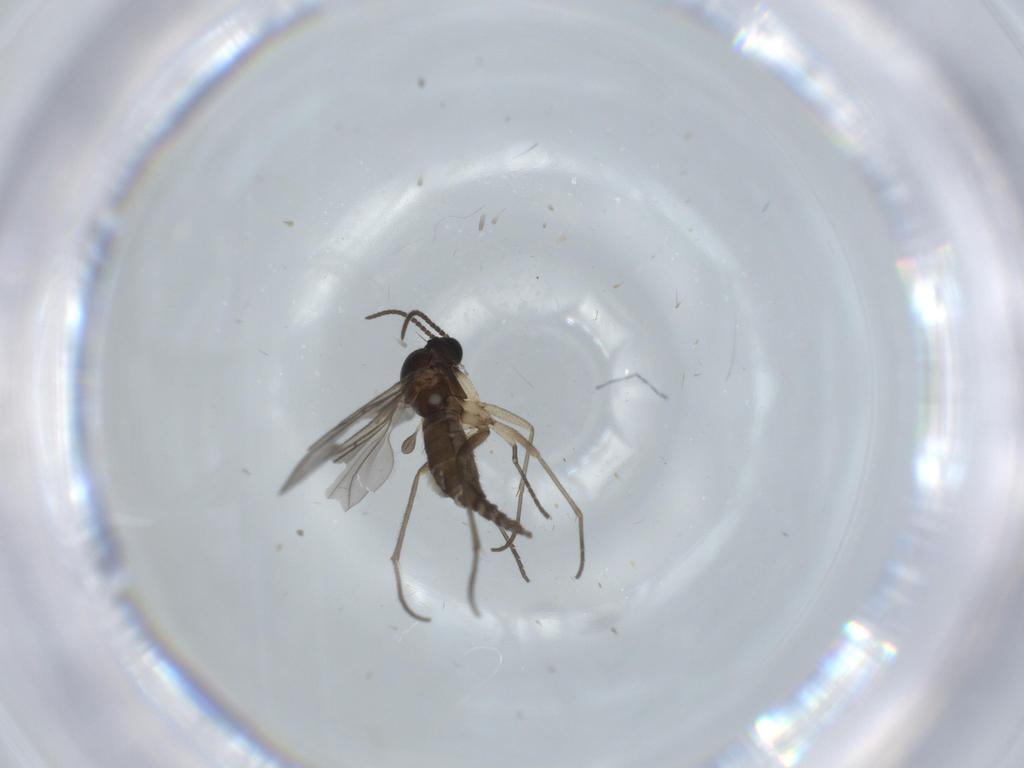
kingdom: Animalia
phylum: Arthropoda
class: Insecta
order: Diptera
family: Sciaridae
